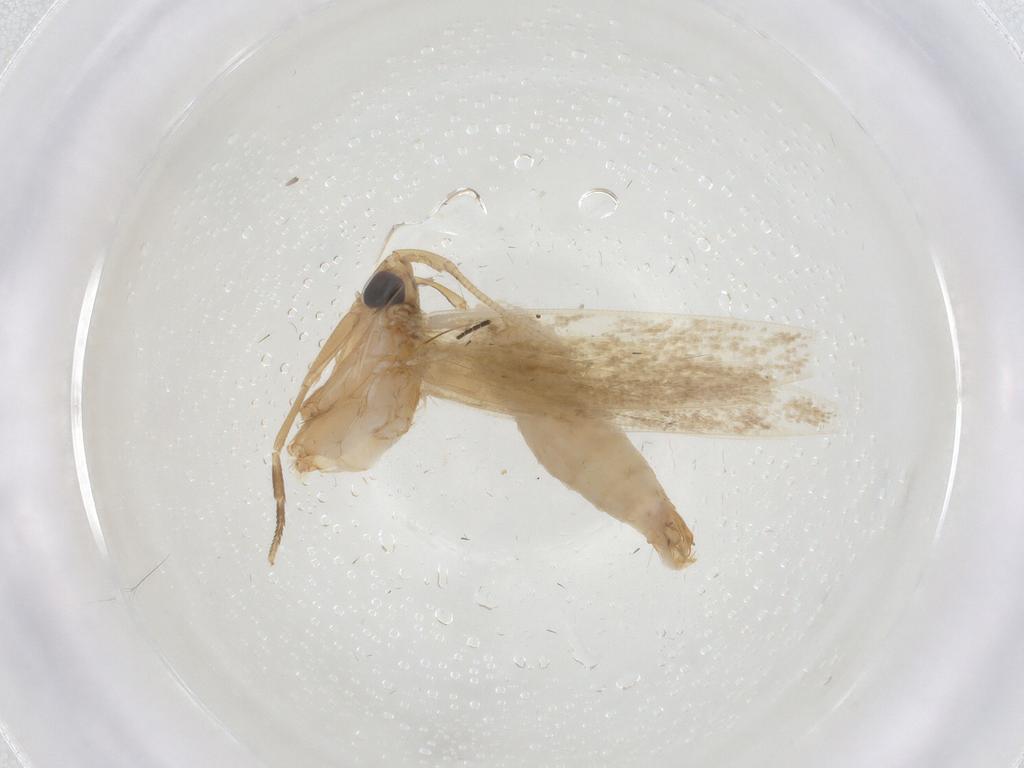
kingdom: Animalia
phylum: Arthropoda
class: Insecta
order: Lepidoptera
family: Tineidae
